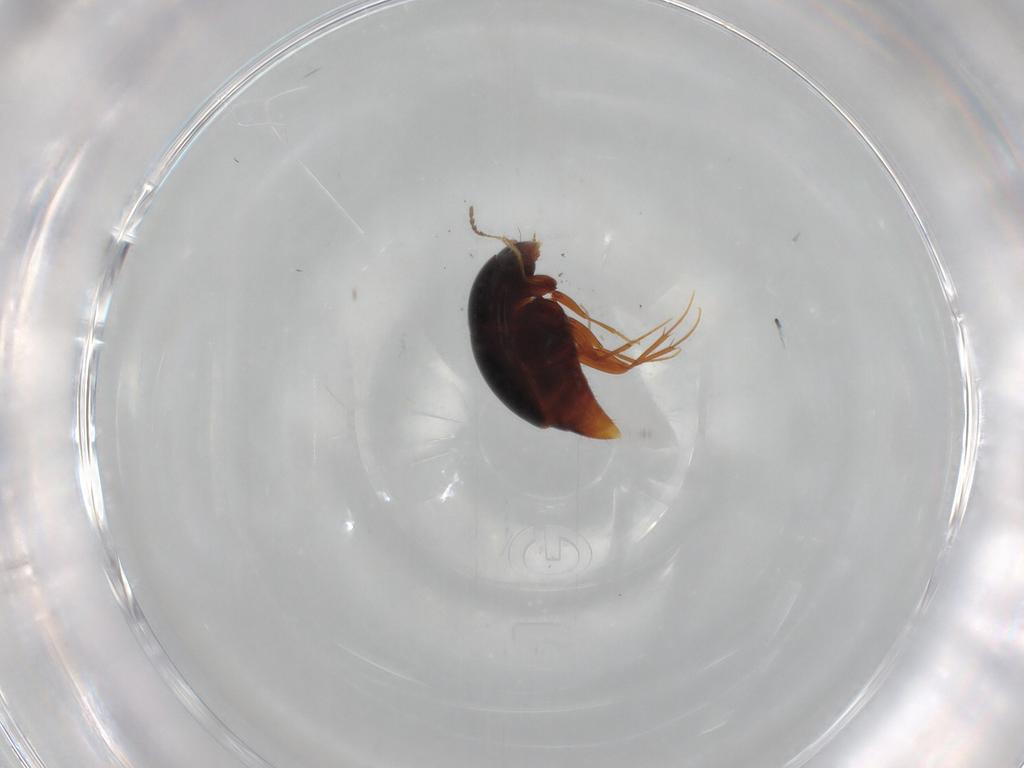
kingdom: Animalia
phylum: Arthropoda
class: Insecta
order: Coleoptera
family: Staphylinidae
